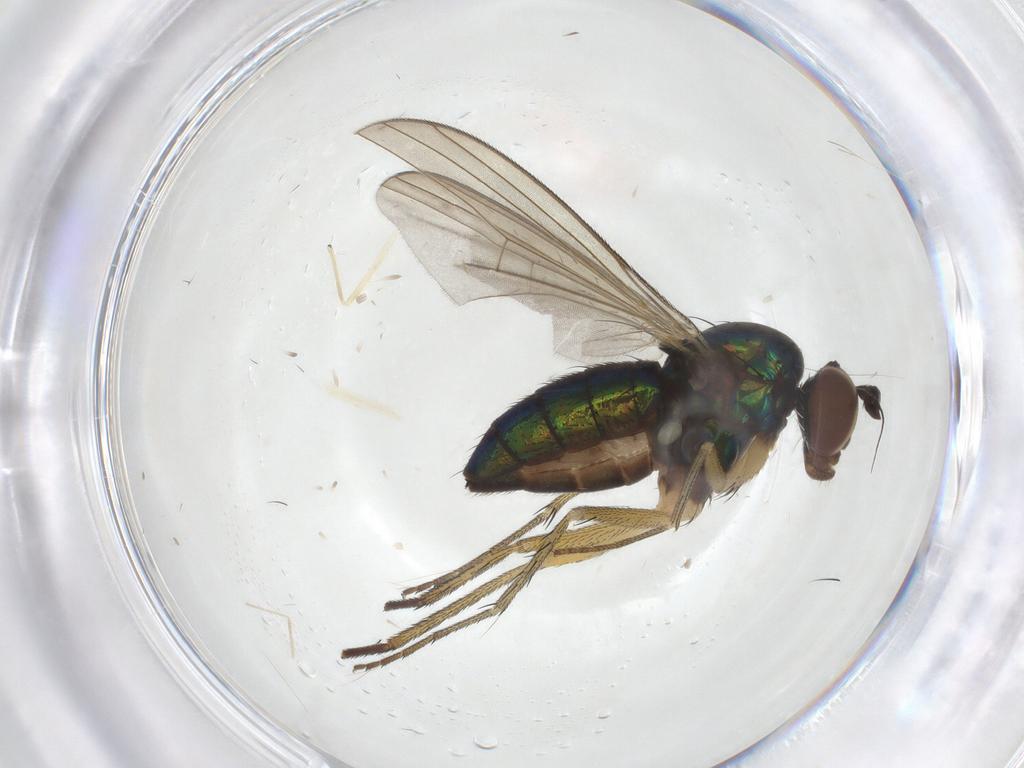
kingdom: Animalia
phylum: Arthropoda
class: Insecta
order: Diptera
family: Dolichopodidae
